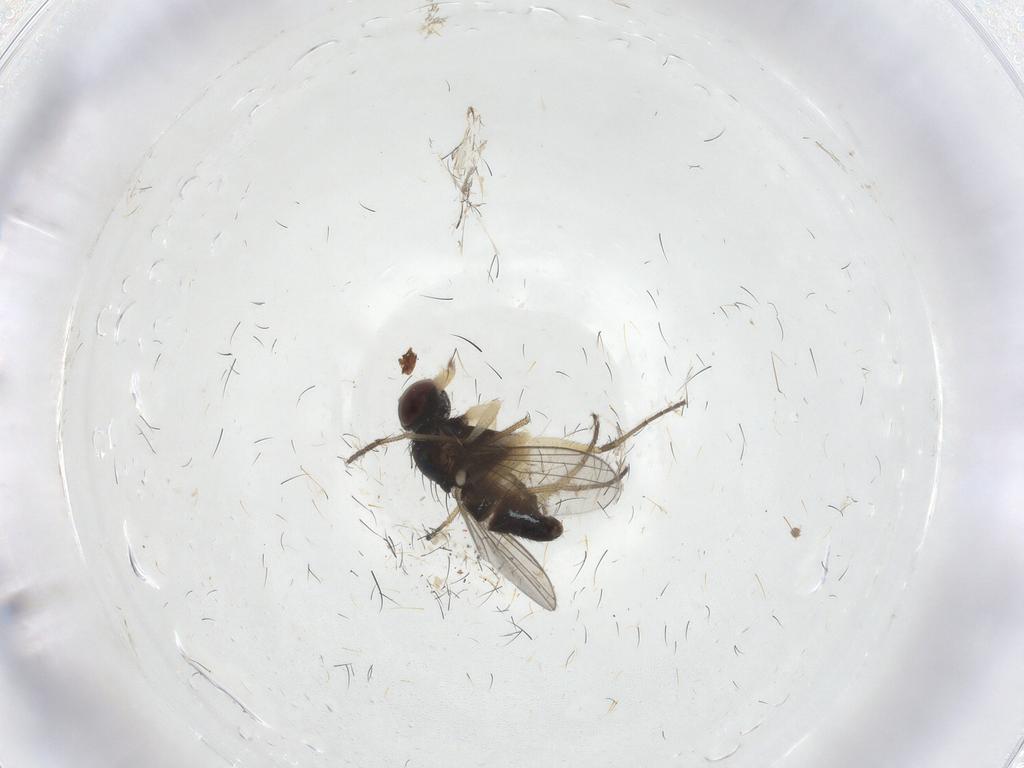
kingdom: Animalia
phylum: Arthropoda
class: Insecta
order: Diptera
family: Dolichopodidae
